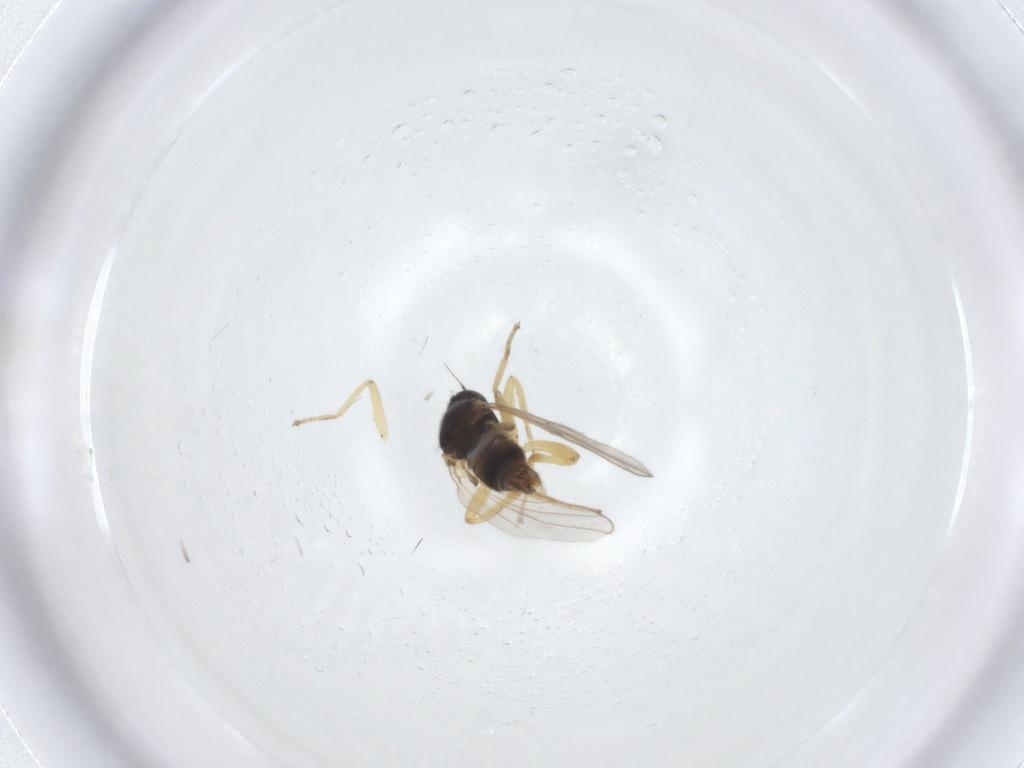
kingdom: Animalia
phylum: Arthropoda
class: Insecta
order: Diptera
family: Hybotidae
